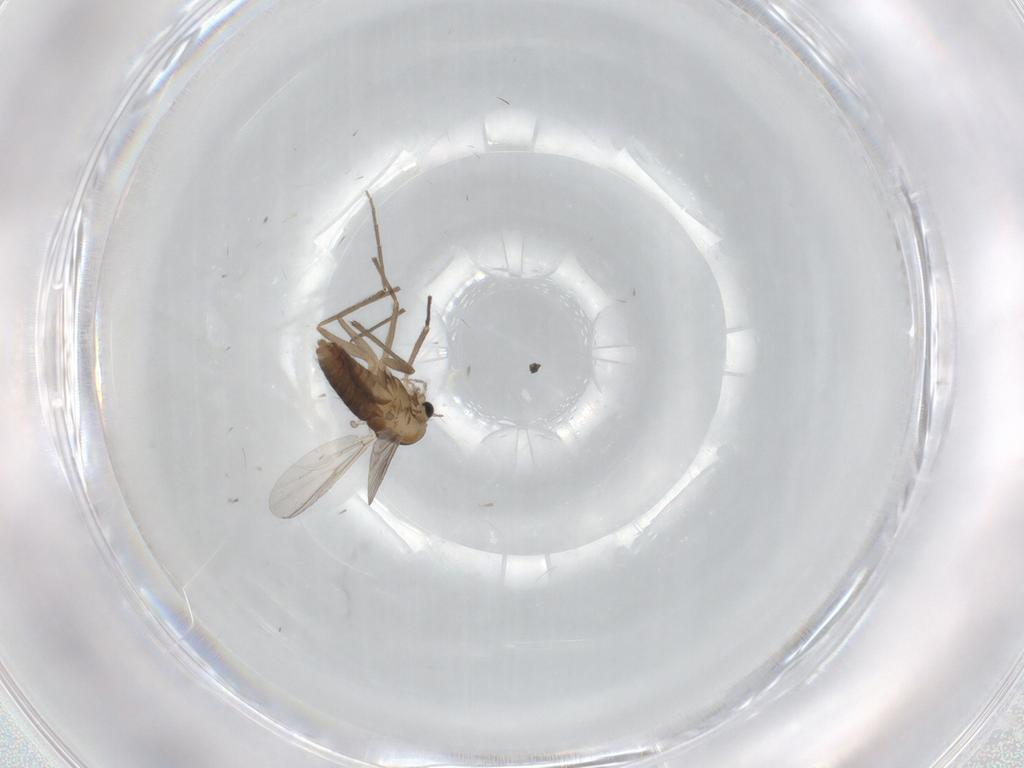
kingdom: Animalia
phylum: Arthropoda
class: Insecta
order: Diptera
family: Chironomidae
